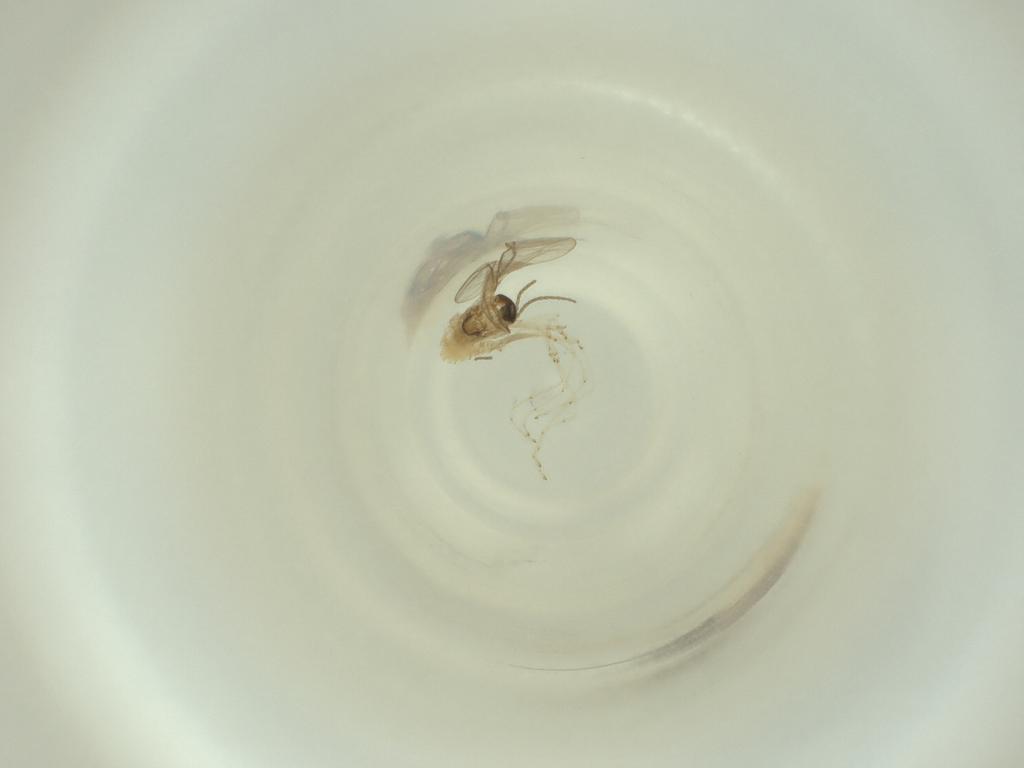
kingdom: Animalia
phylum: Arthropoda
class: Insecta
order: Diptera
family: Cecidomyiidae
